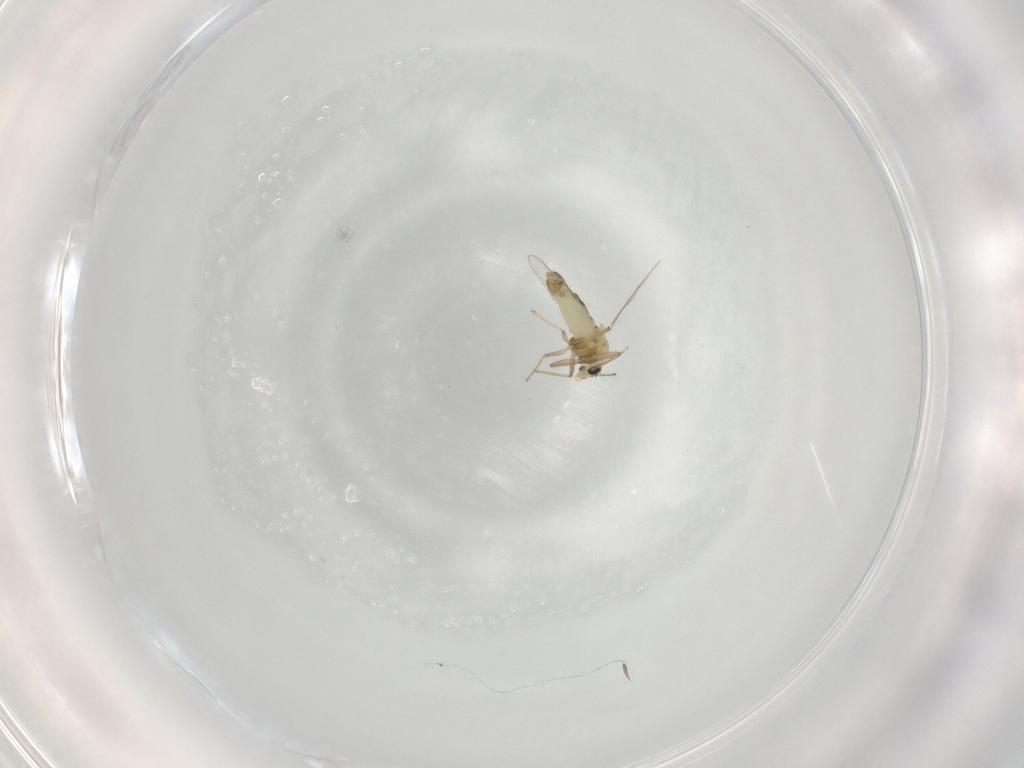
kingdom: Animalia
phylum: Arthropoda
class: Insecta
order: Diptera
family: Chironomidae
